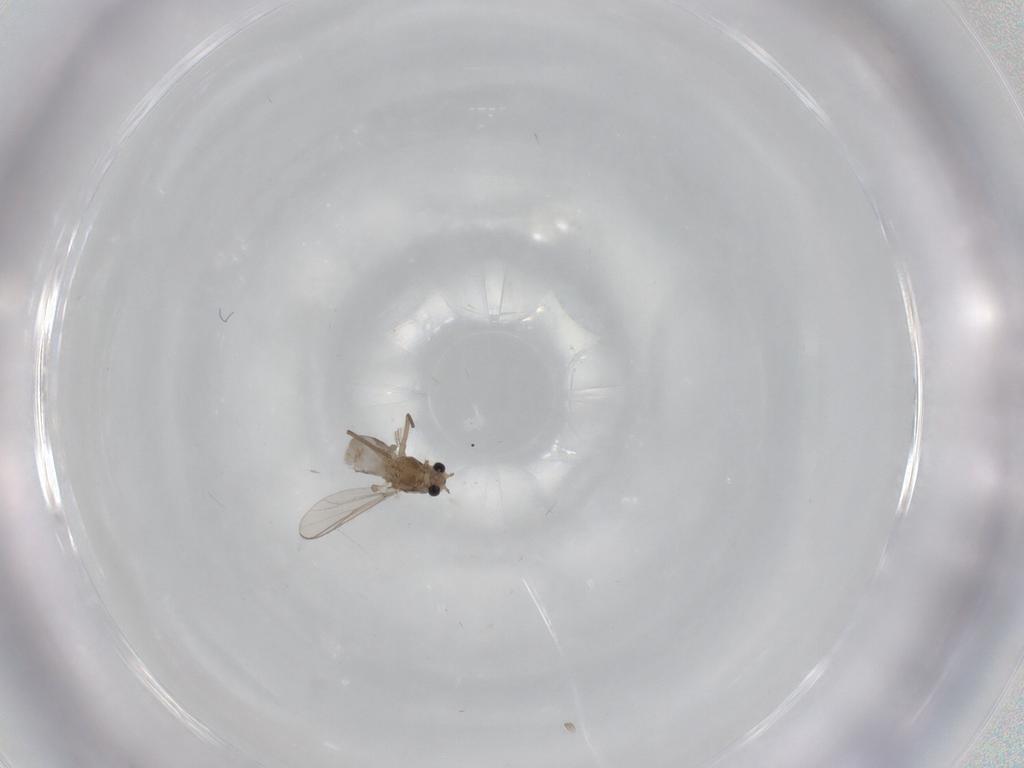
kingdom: Animalia
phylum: Arthropoda
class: Insecta
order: Diptera
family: Chironomidae
